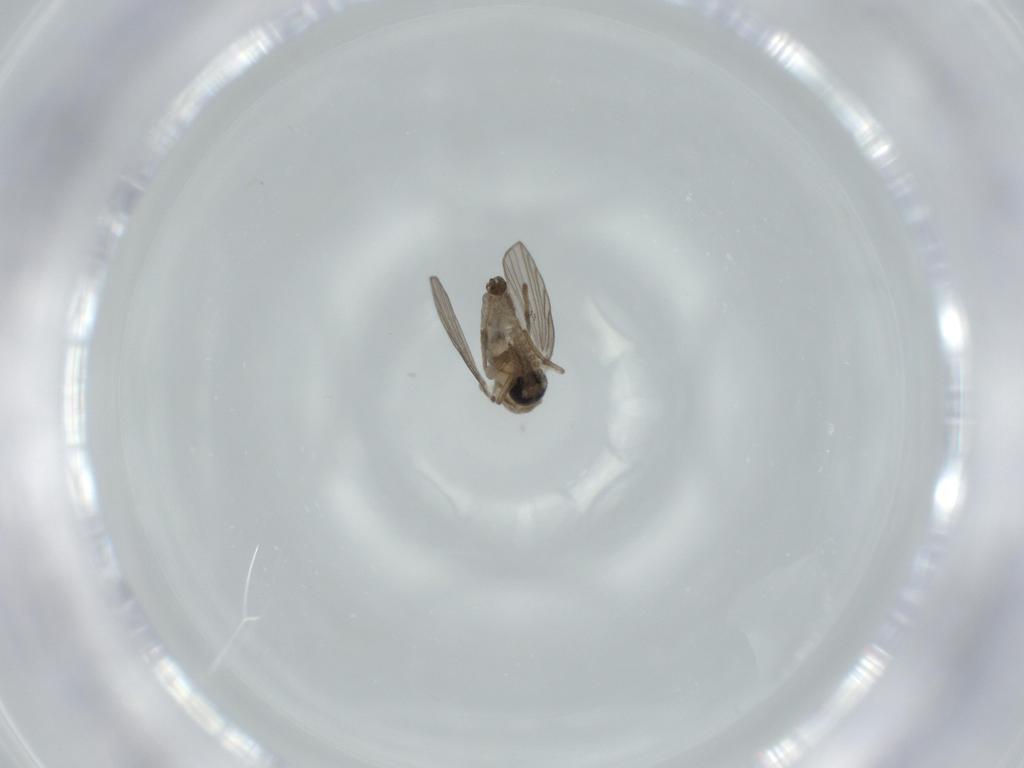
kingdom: Animalia
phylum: Arthropoda
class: Insecta
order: Diptera
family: Psychodidae
